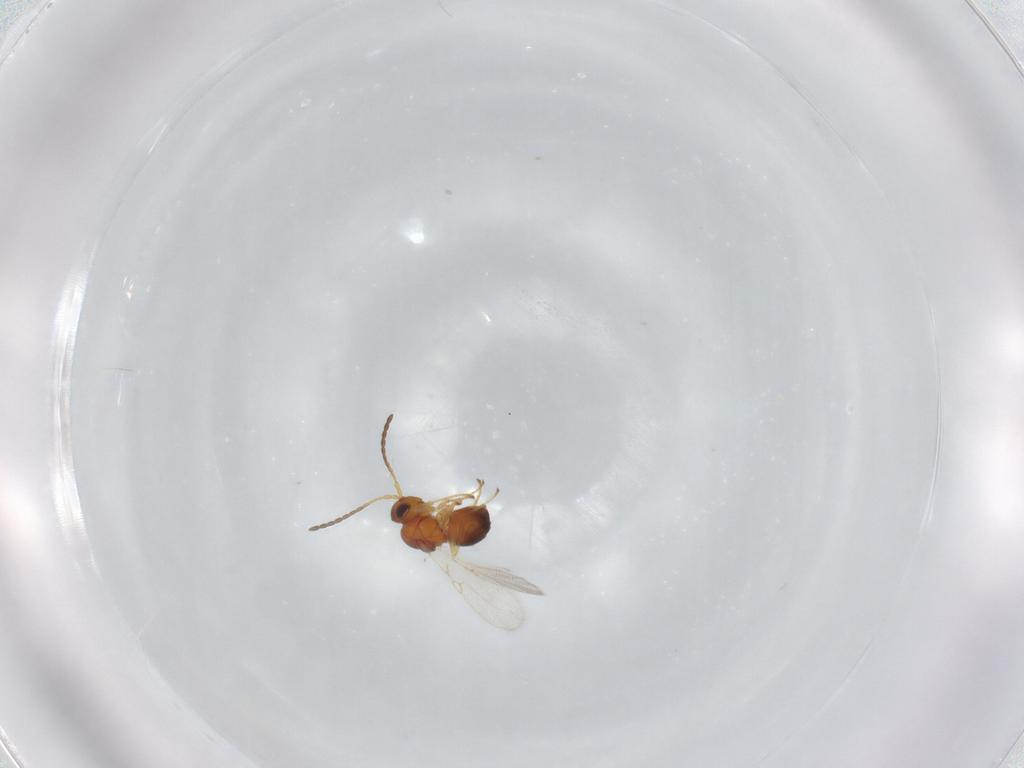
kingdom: Animalia
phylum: Arthropoda
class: Insecta
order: Hymenoptera
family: Figitidae
